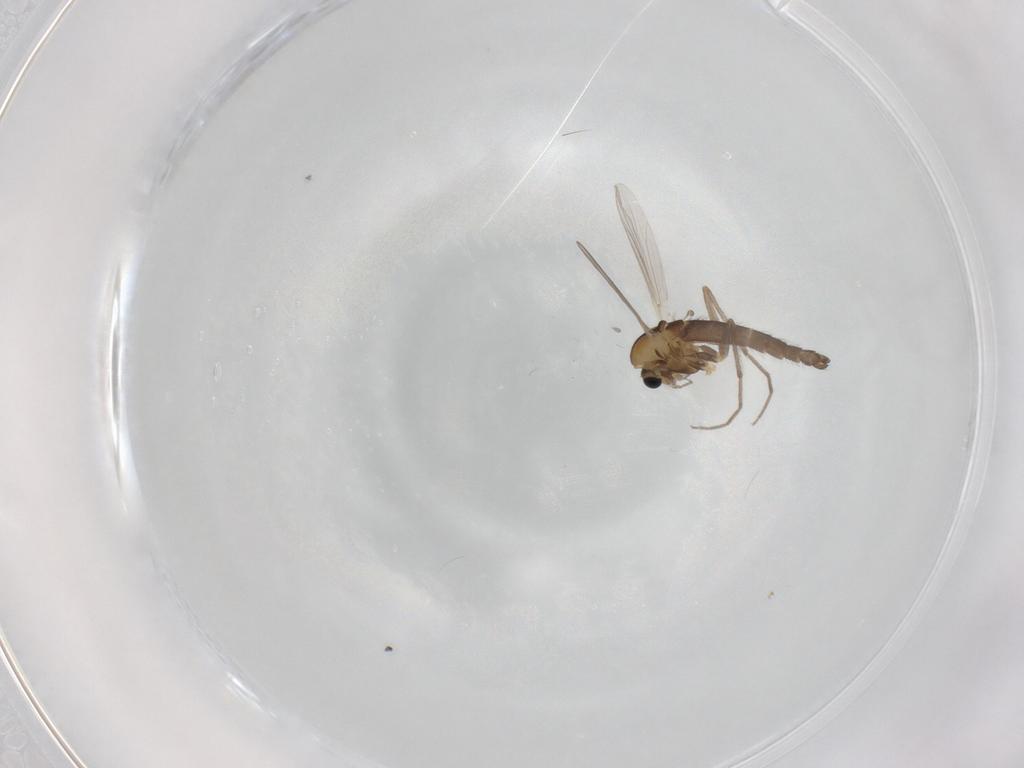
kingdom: Animalia
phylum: Arthropoda
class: Insecta
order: Diptera
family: Chironomidae
